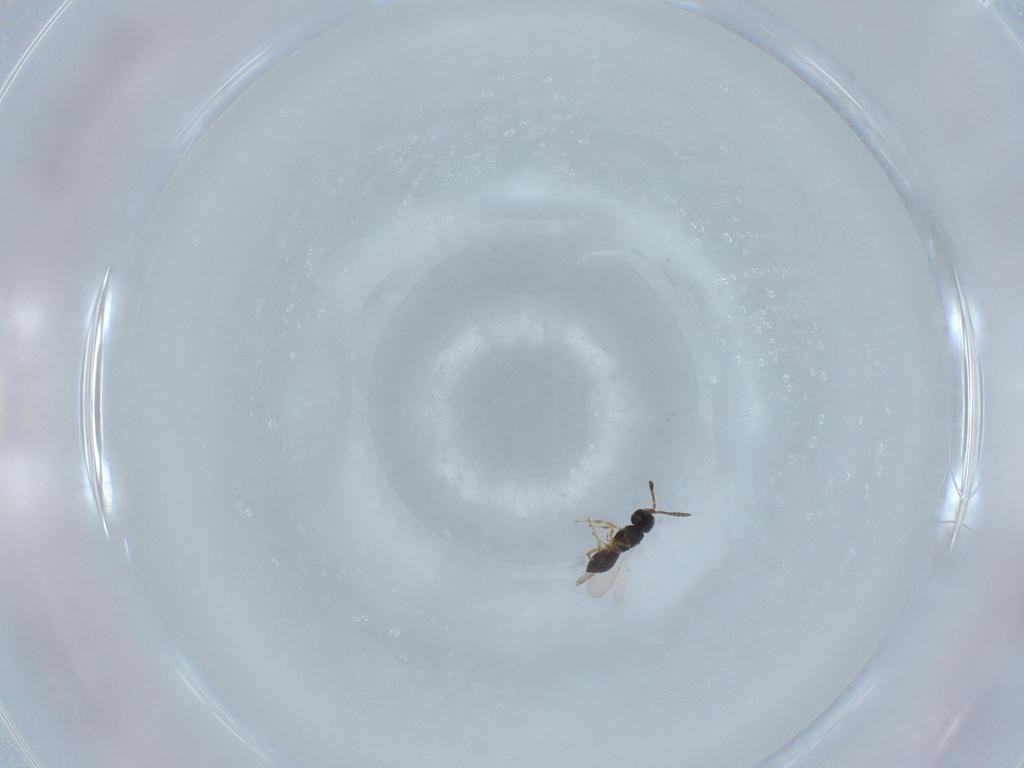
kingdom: Animalia
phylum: Arthropoda
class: Insecta
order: Hymenoptera
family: Scelionidae
